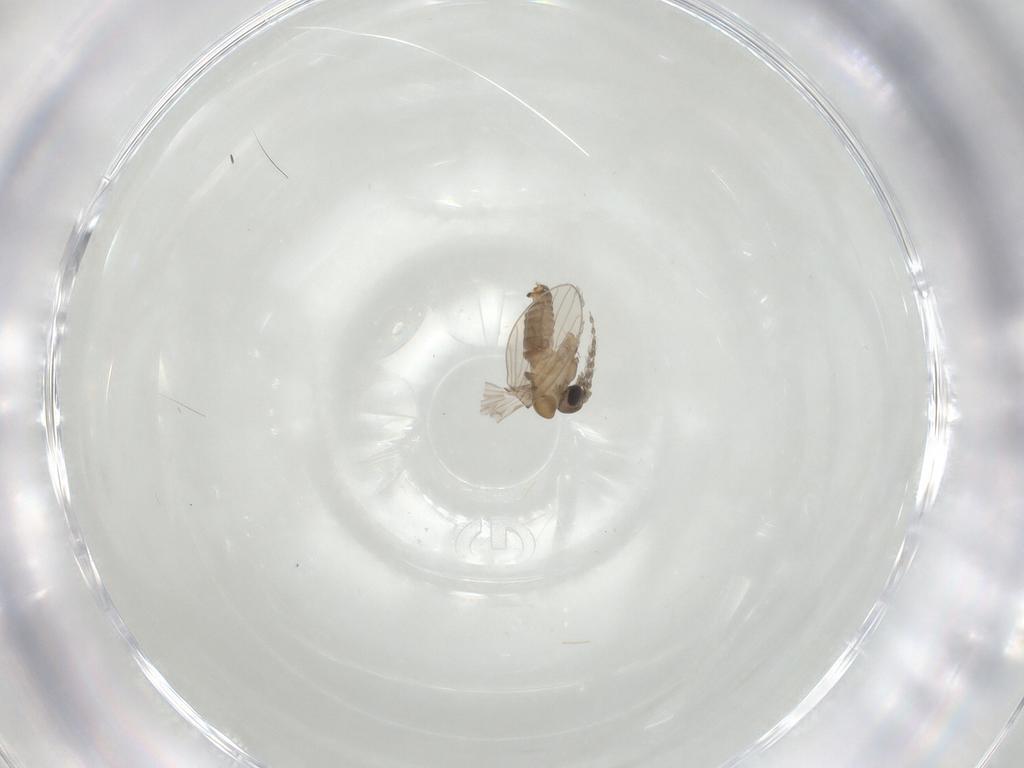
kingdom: Animalia
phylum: Arthropoda
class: Insecta
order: Diptera
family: Psychodidae
